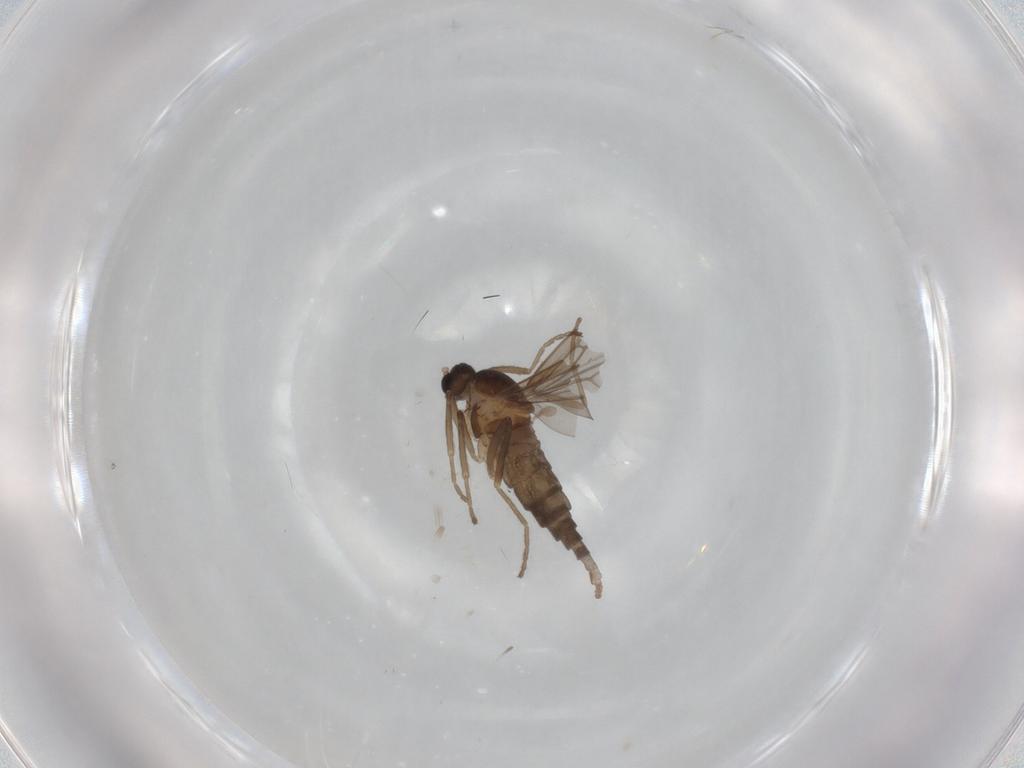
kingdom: Animalia
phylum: Arthropoda
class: Insecta
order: Diptera
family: Cecidomyiidae
